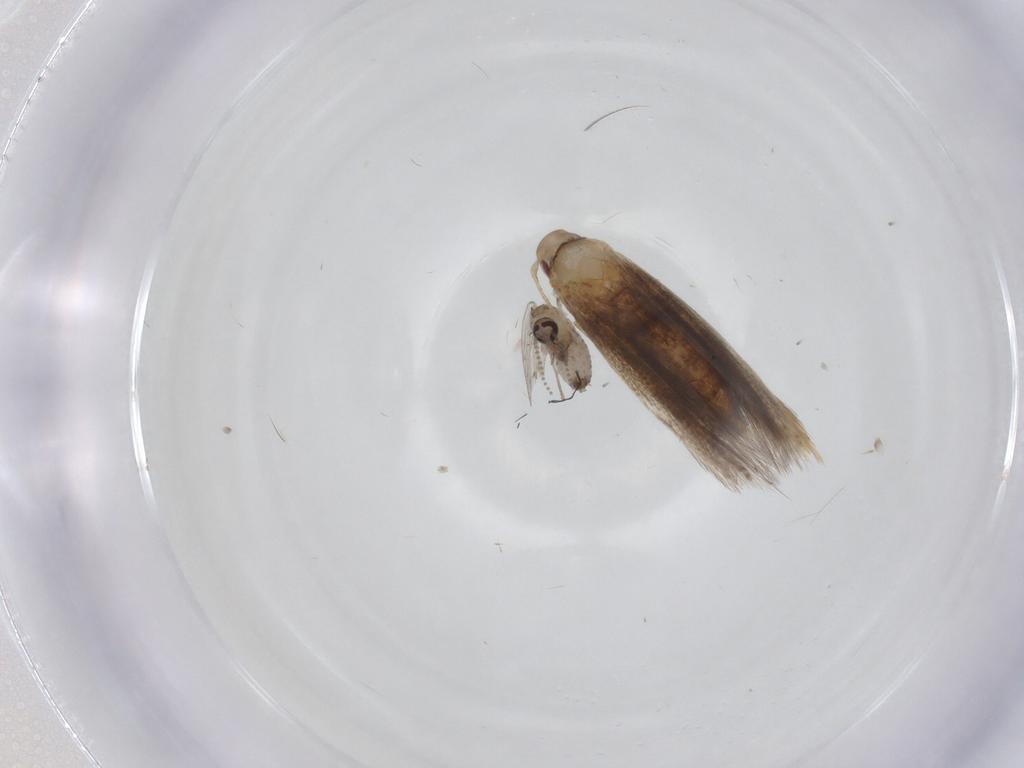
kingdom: Animalia
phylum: Arthropoda
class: Insecta
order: Diptera
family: Psychodidae
